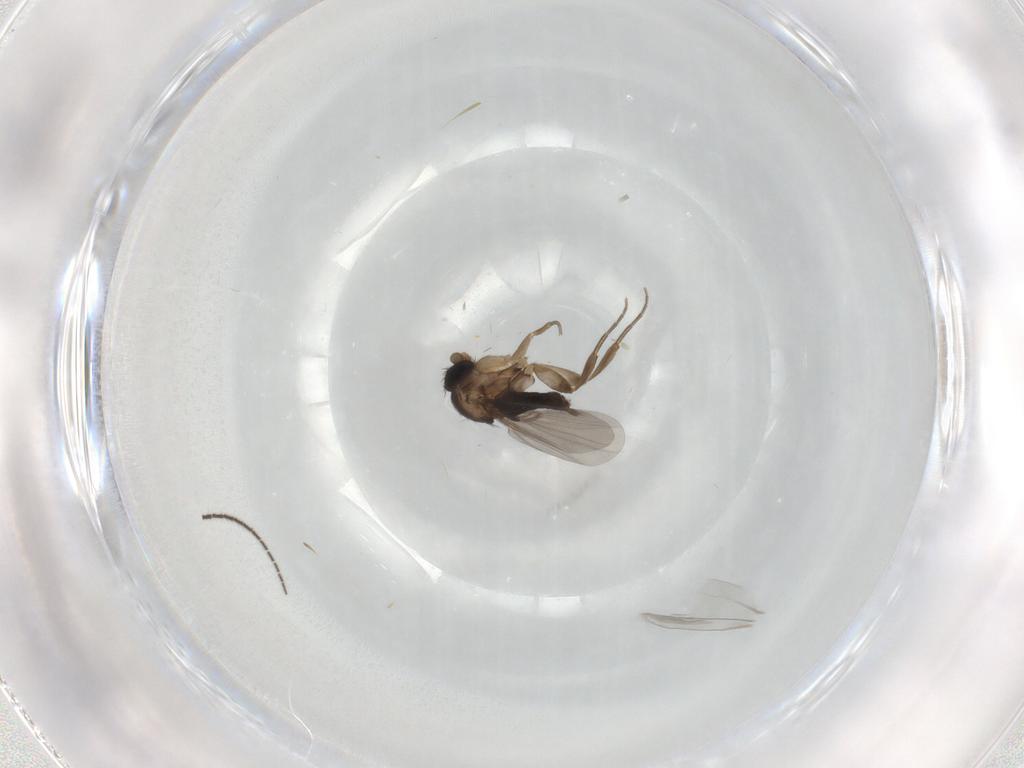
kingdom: Animalia
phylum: Arthropoda
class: Insecta
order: Diptera
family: Phoridae
